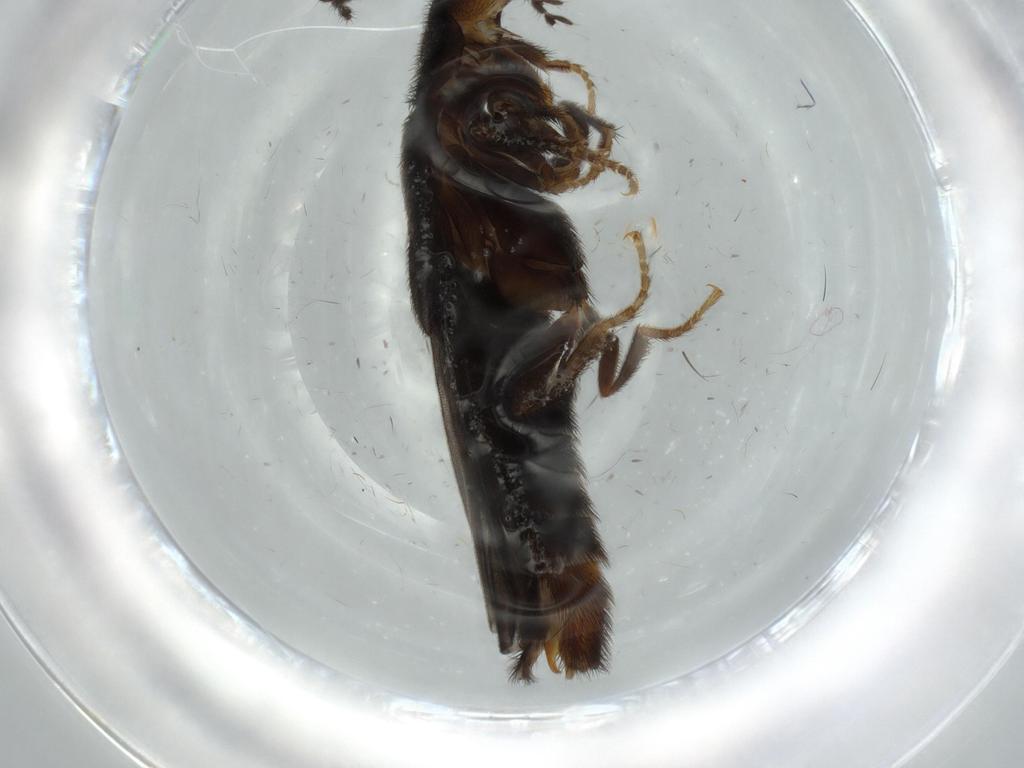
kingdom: Animalia
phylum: Arthropoda
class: Insecta
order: Coleoptera
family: Phengodidae
